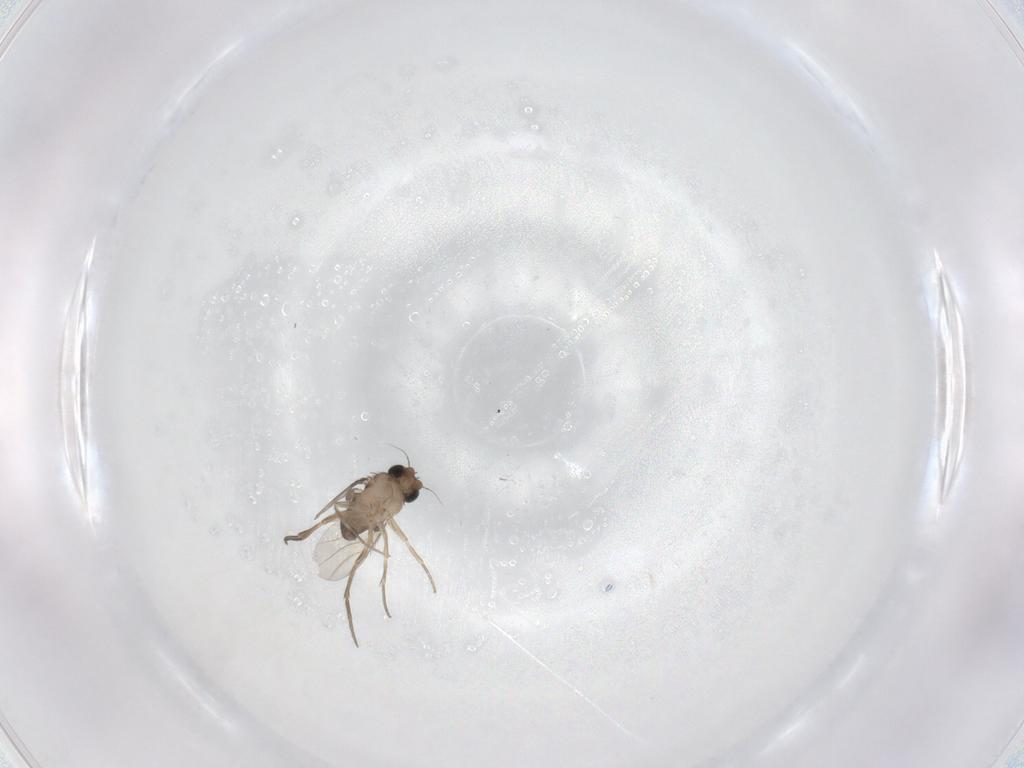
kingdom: Animalia
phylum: Arthropoda
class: Insecta
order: Diptera
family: Phoridae
